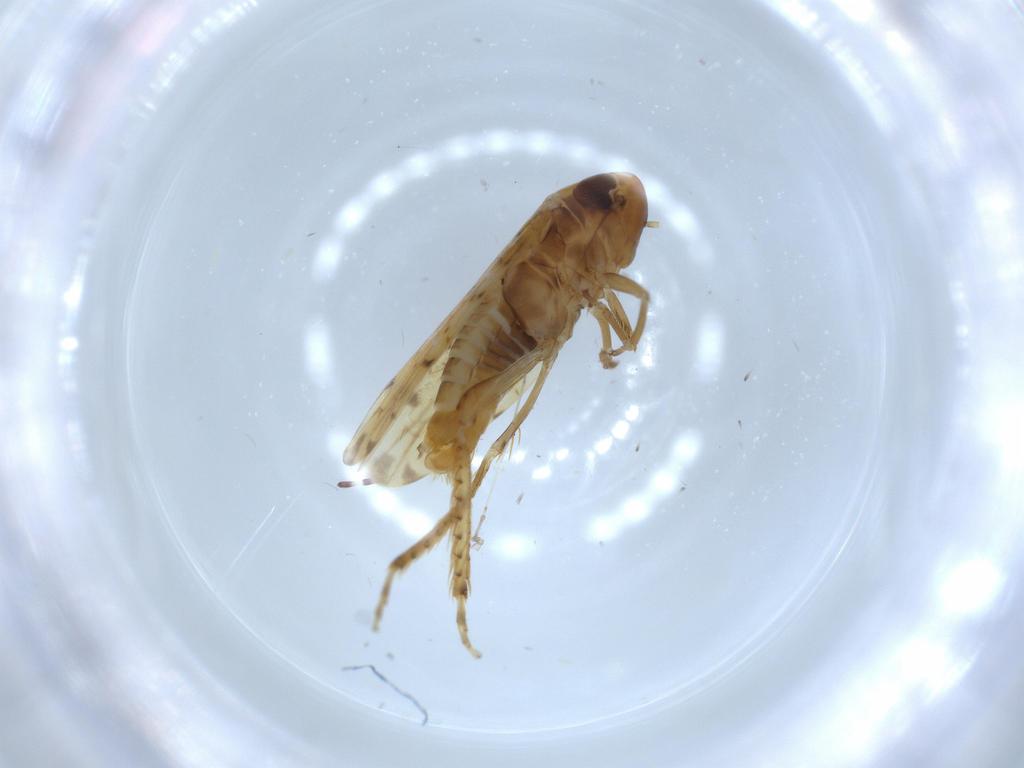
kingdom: Animalia
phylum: Arthropoda
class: Insecta
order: Hemiptera
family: Cicadellidae
